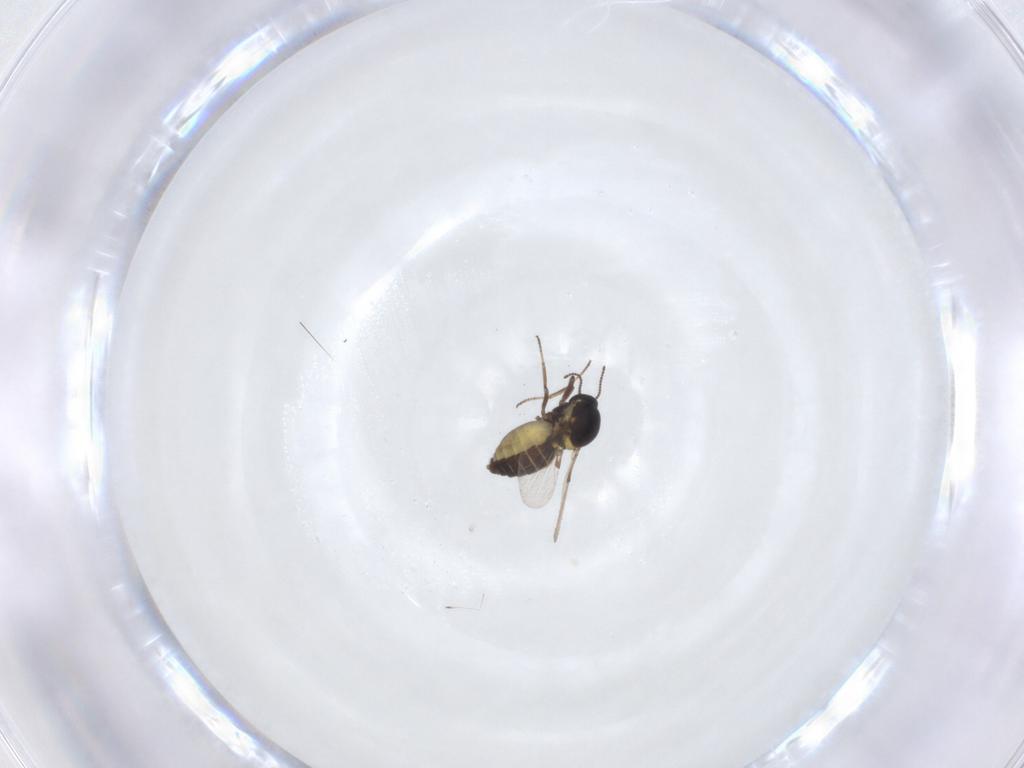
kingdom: Animalia
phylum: Arthropoda
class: Insecta
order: Diptera
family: Ceratopogonidae
